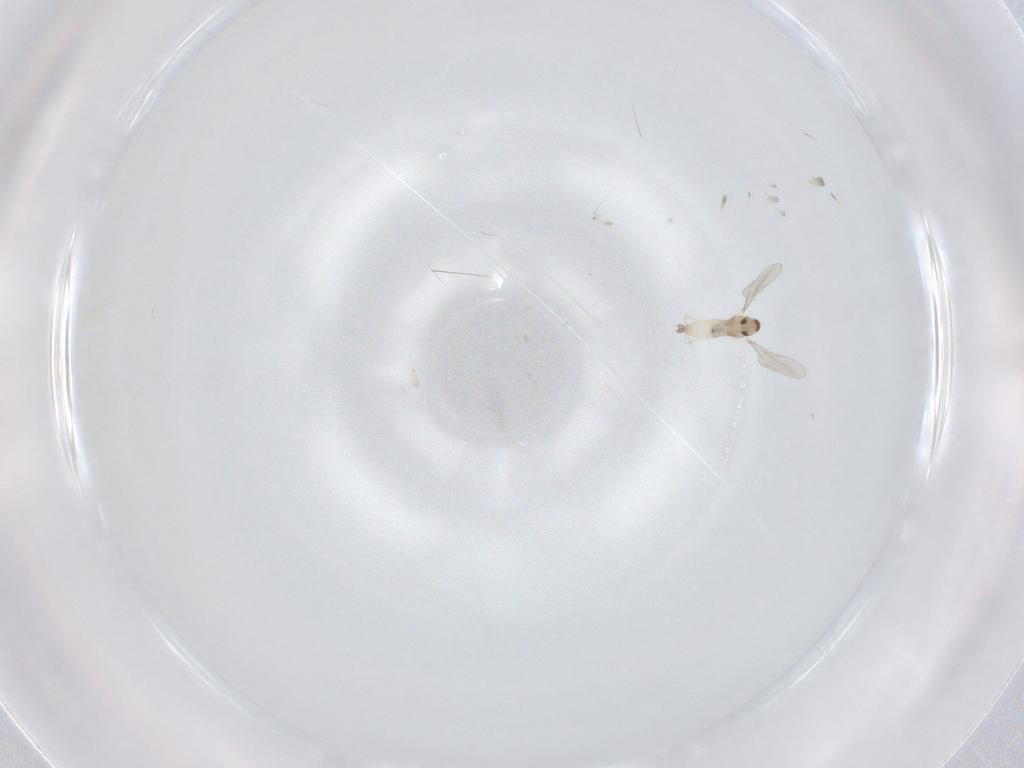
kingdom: Animalia
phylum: Arthropoda
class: Insecta
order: Diptera
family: Cecidomyiidae
